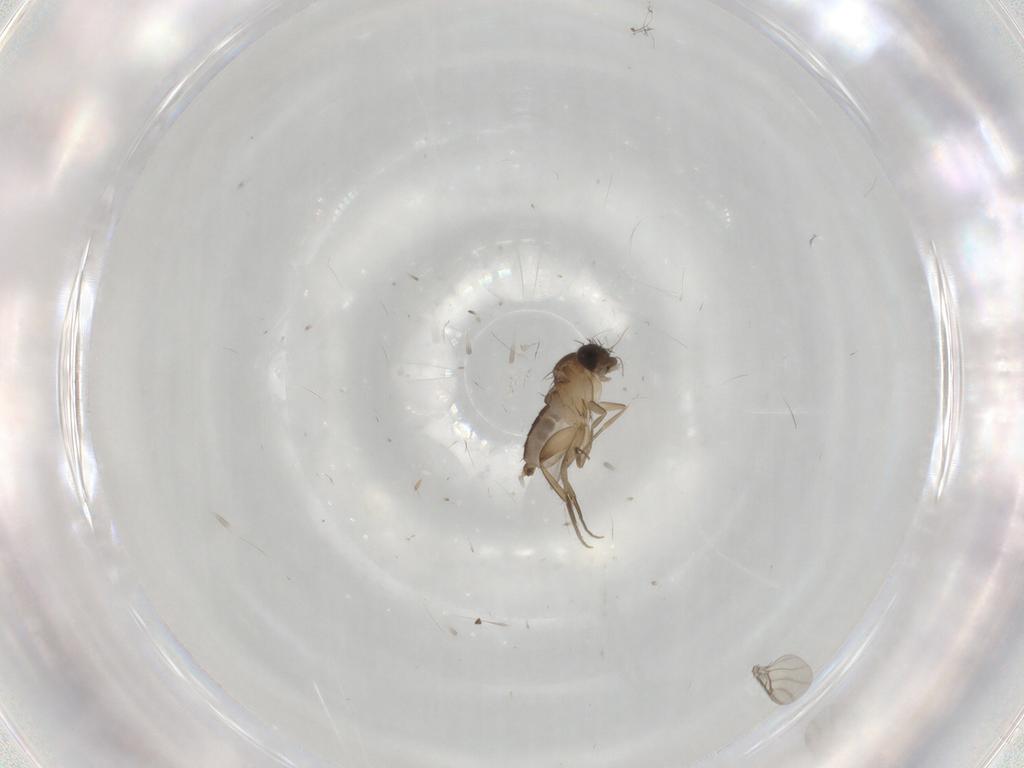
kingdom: Animalia
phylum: Arthropoda
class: Insecta
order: Diptera
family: Phoridae
